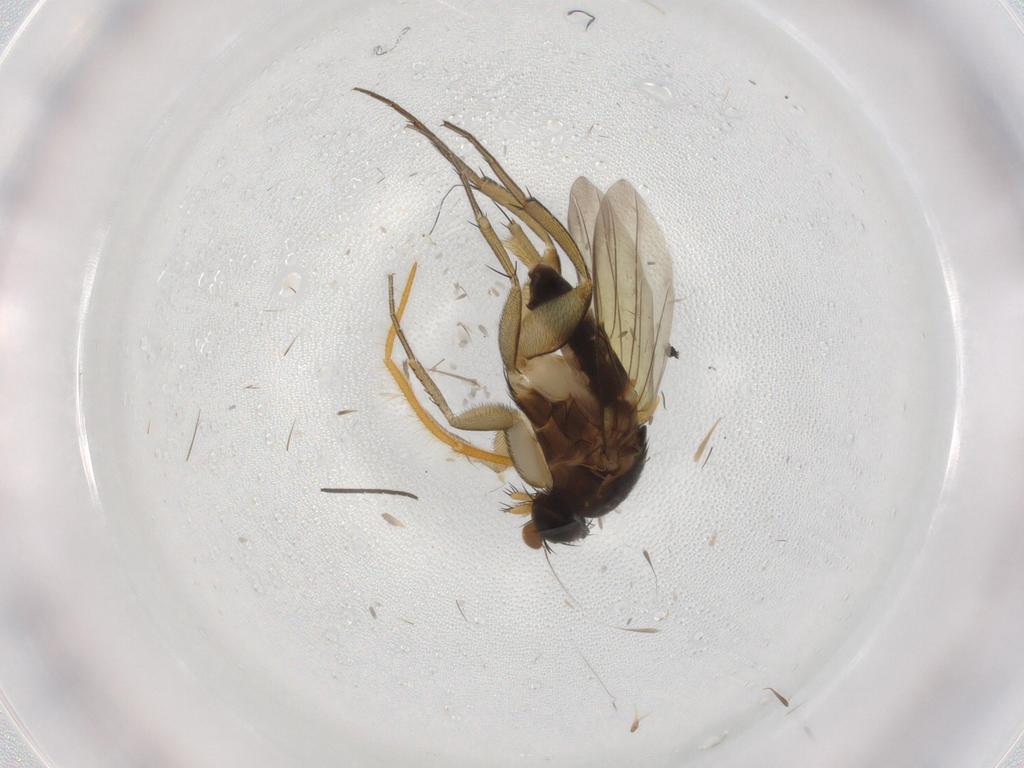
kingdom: Animalia
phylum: Arthropoda
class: Insecta
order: Diptera
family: Phoridae
